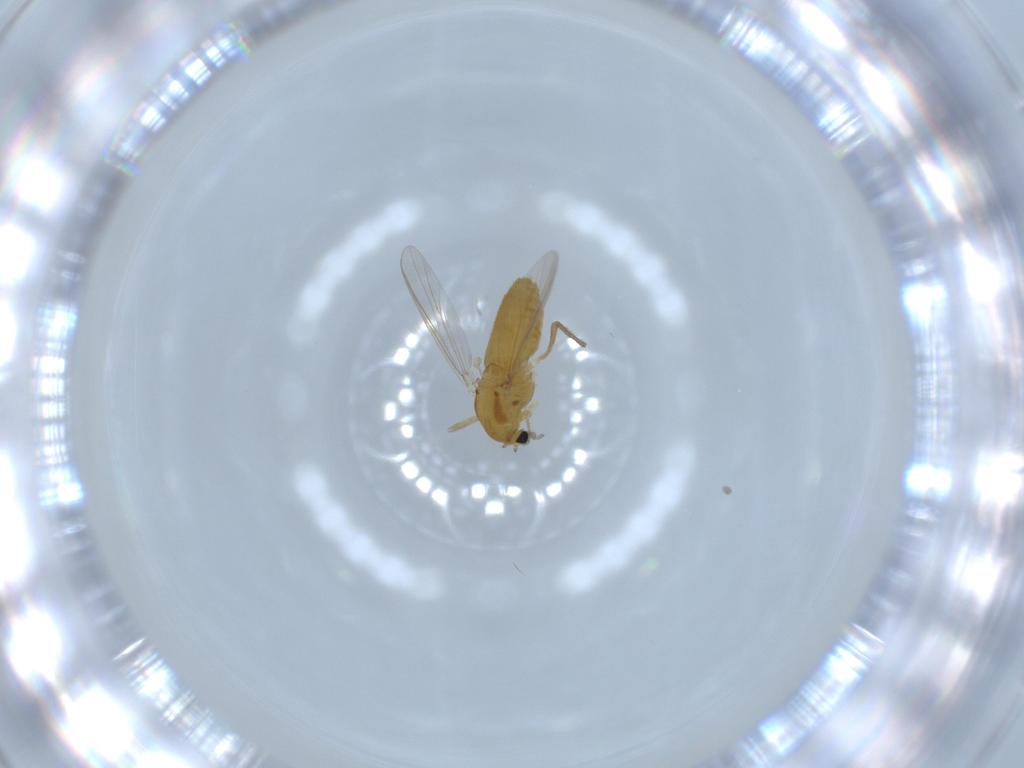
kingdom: Animalia
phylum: Arthropoda
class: Insecta
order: Diptera
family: Chironomidae
